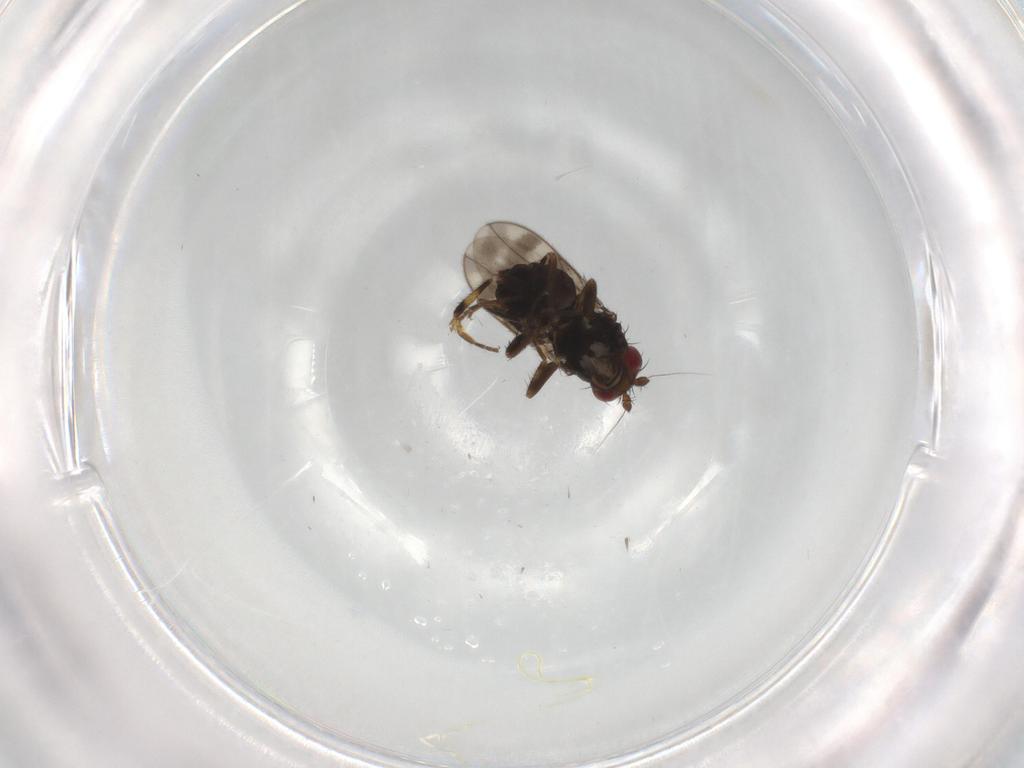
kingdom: Animalia
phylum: Arthropoda
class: Insecta
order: Diptera
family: Sphaeroceridae
